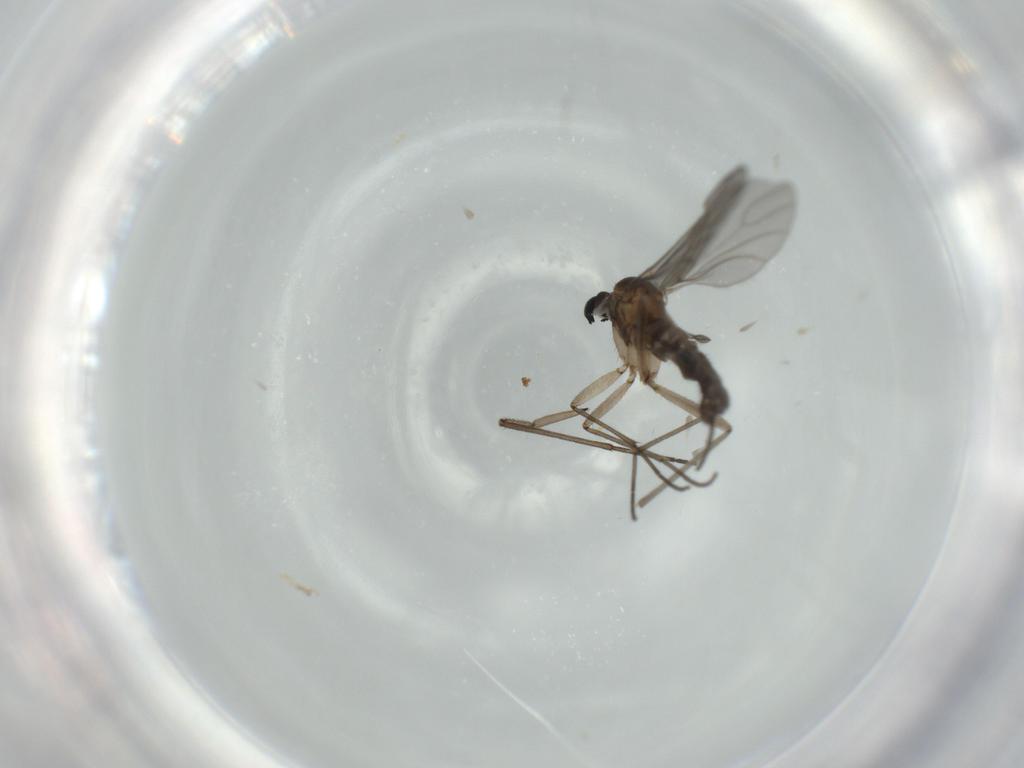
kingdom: Animalia
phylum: Arthropoda
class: Insecta
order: Diptera
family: Sciaridae
